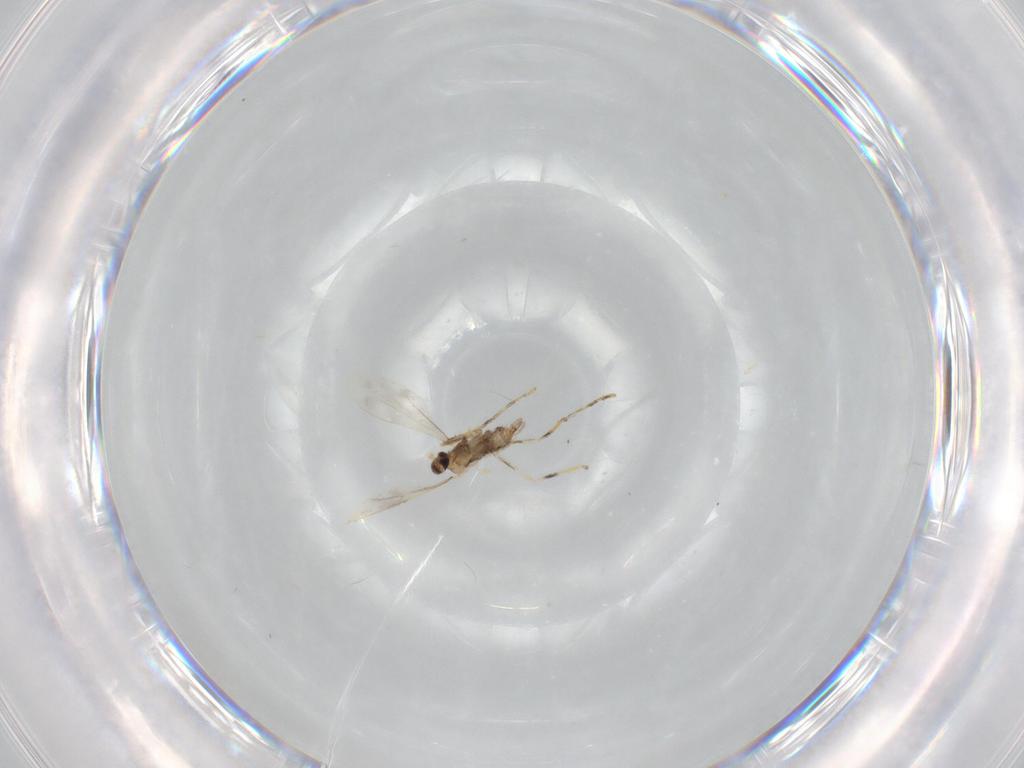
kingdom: Animalia
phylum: Arthropoda
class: Insecta
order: Diptera
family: Cecidomyiidae
